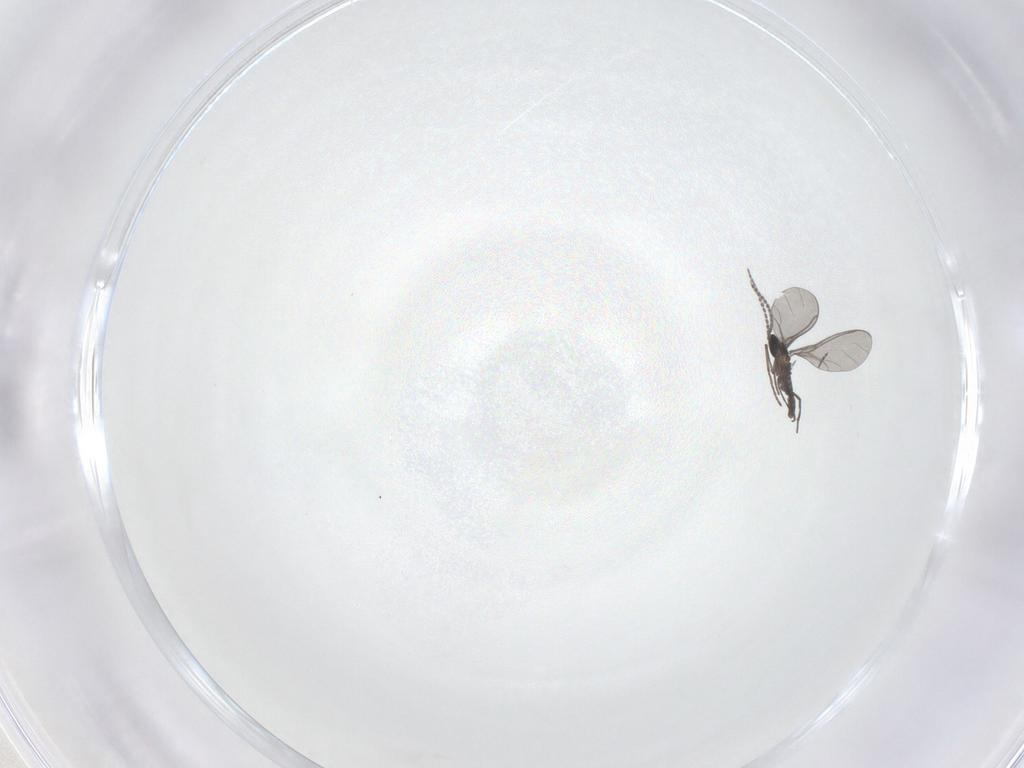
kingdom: Animalia
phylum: Arthropoda
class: Insecta
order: Diptera
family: Sciaridae
